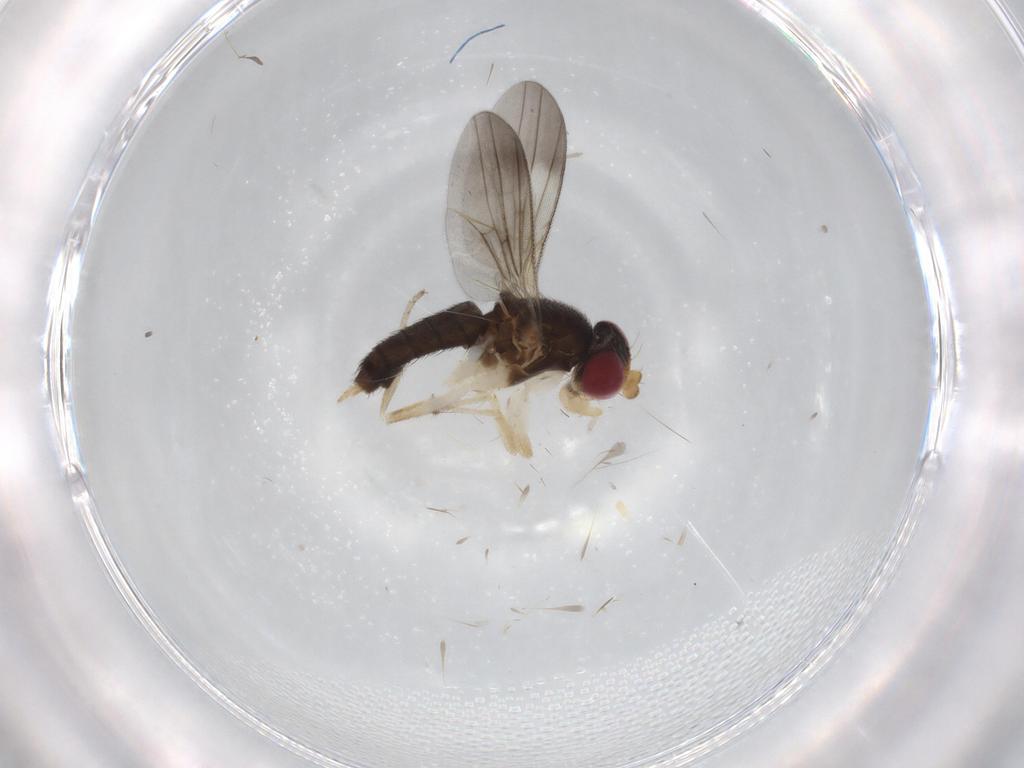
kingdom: Animalia
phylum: Arthropoda
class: Insecta
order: Diptera
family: Clusiidae
